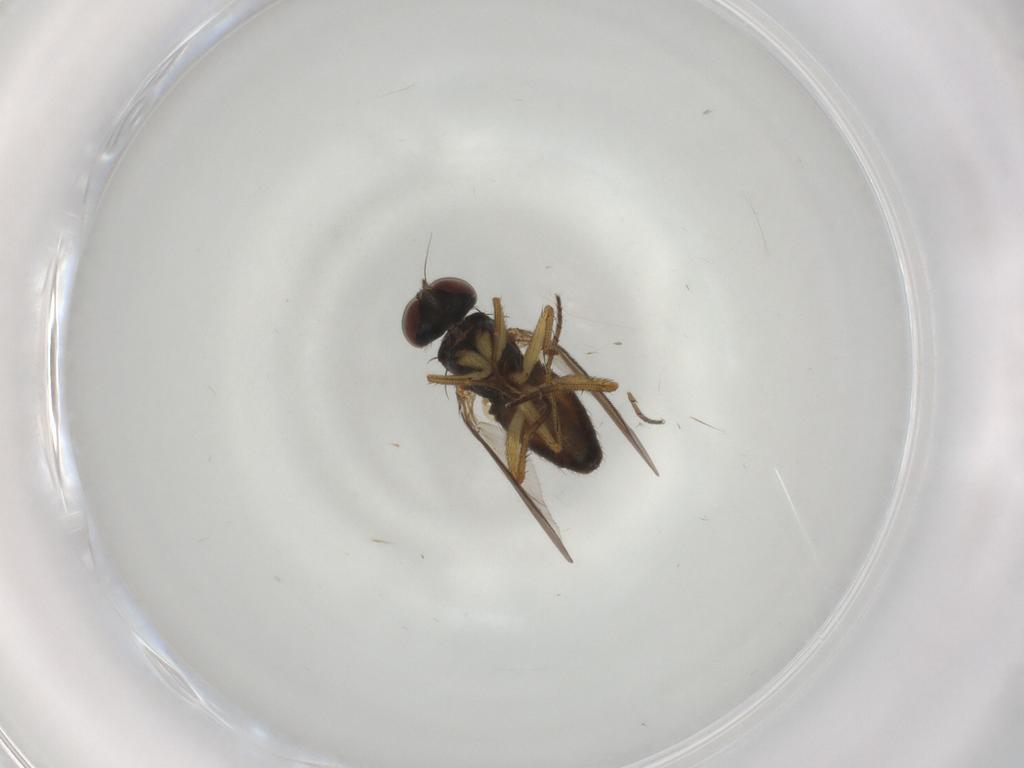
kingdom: Animalia
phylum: Arthropoda
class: Insecta
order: Diptera
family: Dolichopodidae
